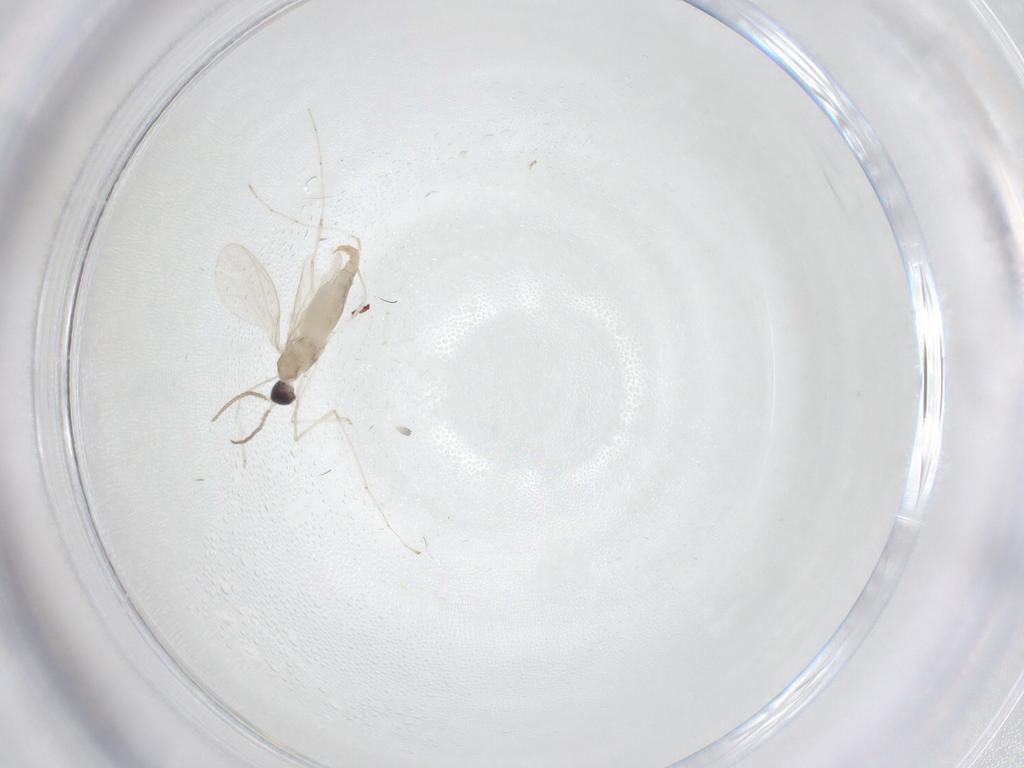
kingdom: Animalia
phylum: Arthropoda
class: Insecta
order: Diptera
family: Cecidomyiidae
